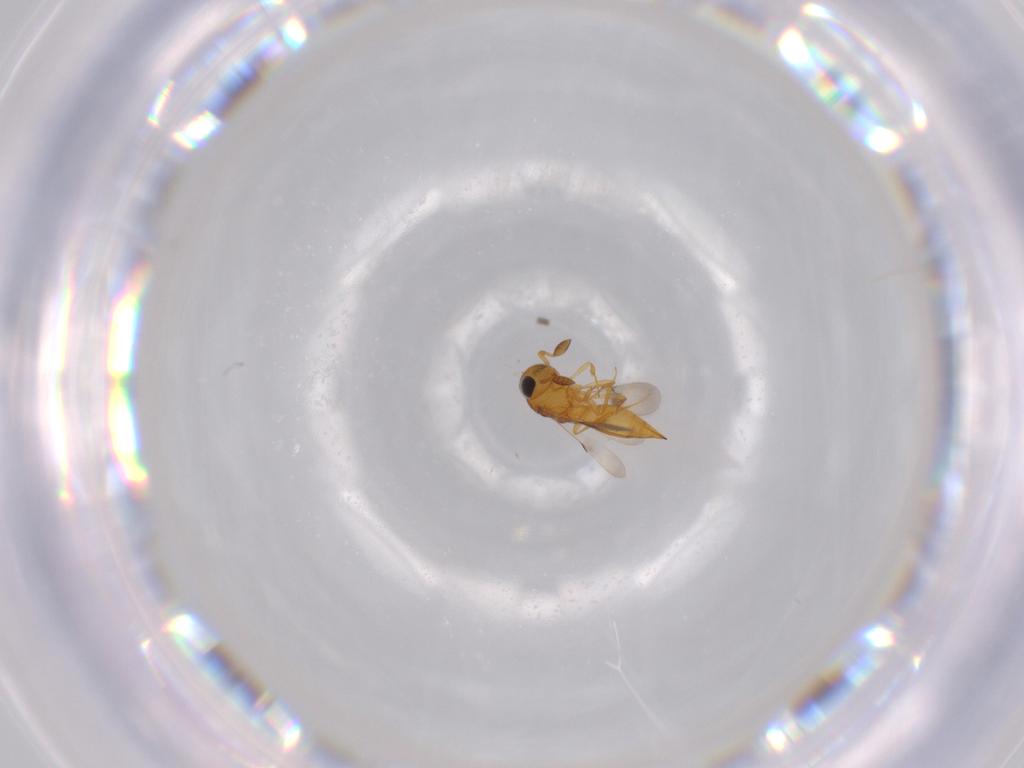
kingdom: Animalia
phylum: Arthropoda
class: Insecta
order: Hymenoptera
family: Scelionidae
